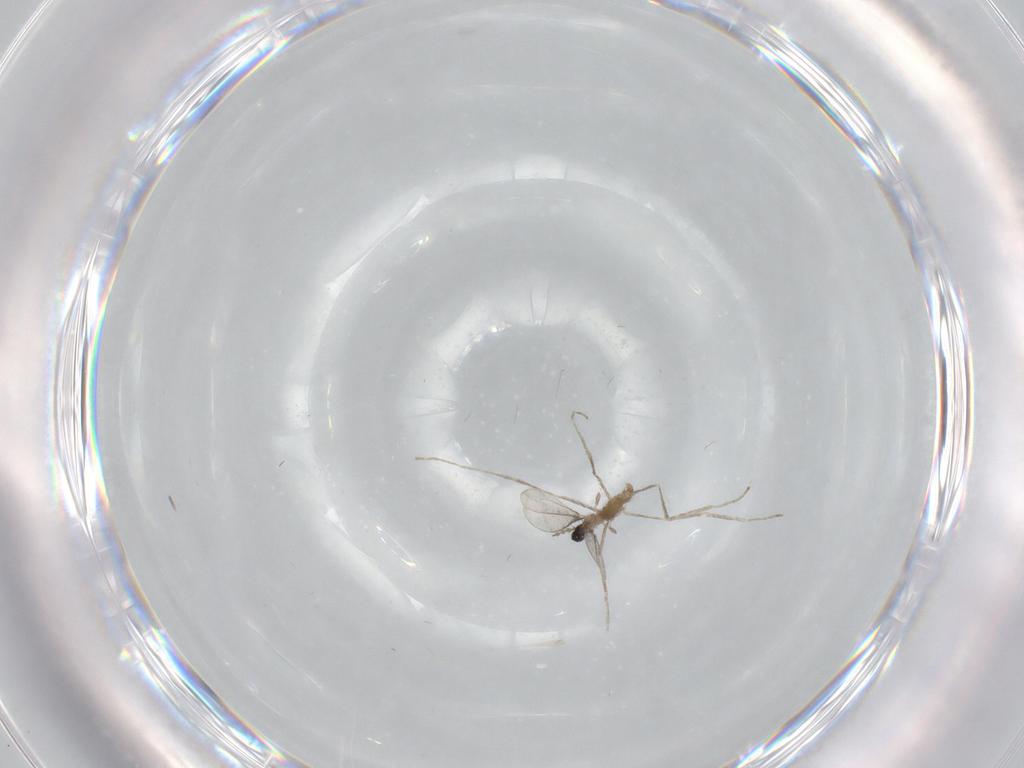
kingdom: Animalia
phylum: Arthropoda
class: Insecta
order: Diptera
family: Cecidomyiidae
